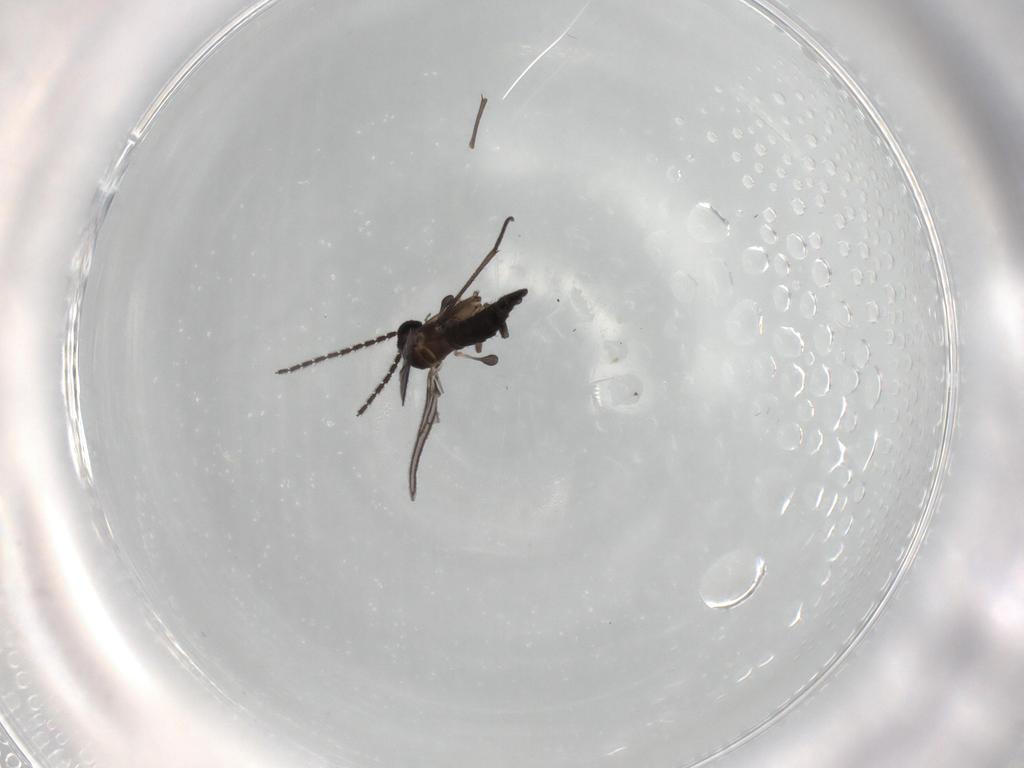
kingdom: Animalia
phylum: Arthropoda
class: Insecta
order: Diptera
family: Sciaridae
